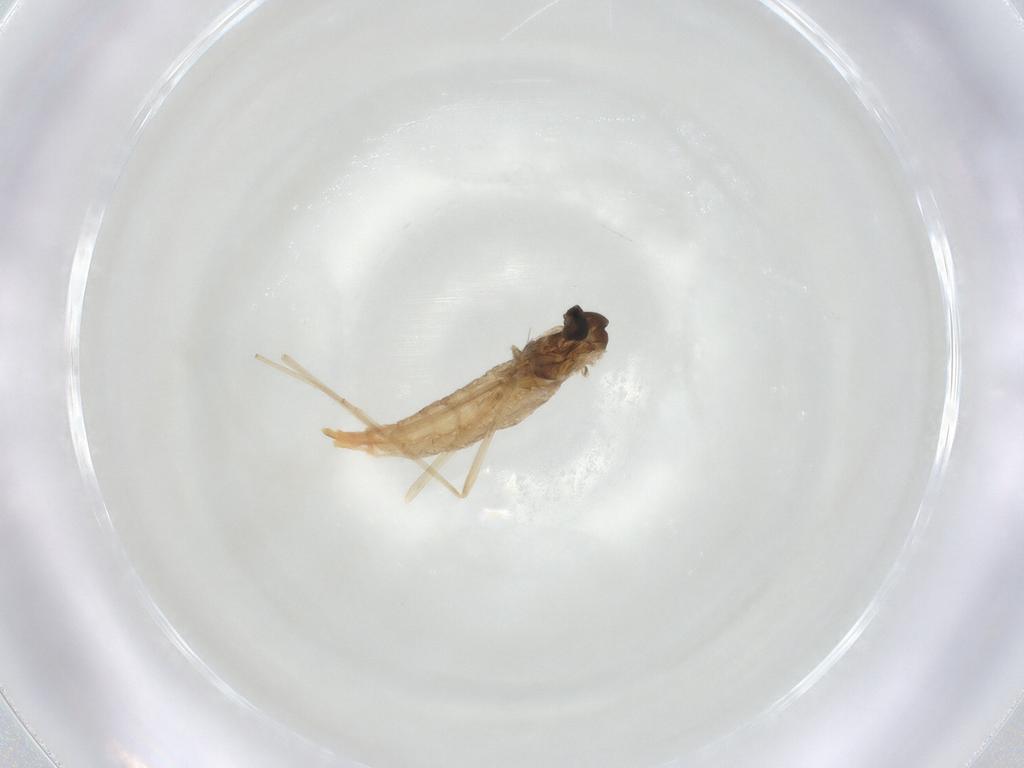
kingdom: Animalia
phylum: Arthropoda
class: Insecta
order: Diptera
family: Cecidomyiidae
